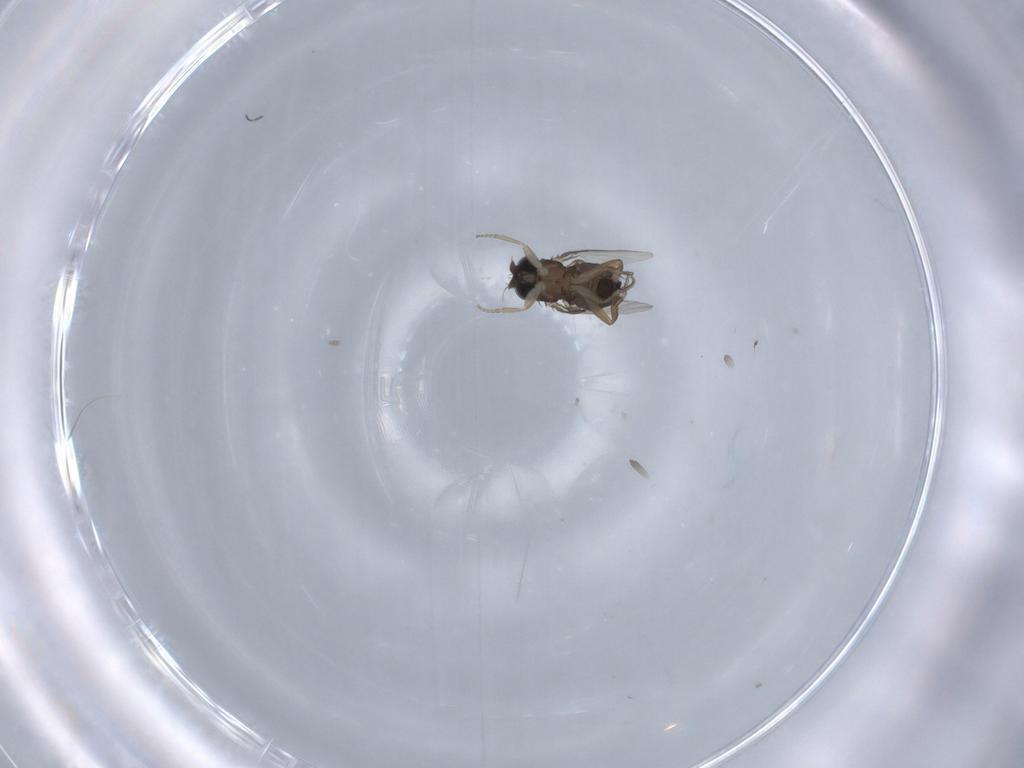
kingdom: Animalia
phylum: Arthropoda
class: Insecta
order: Diptera
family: Phoridae
